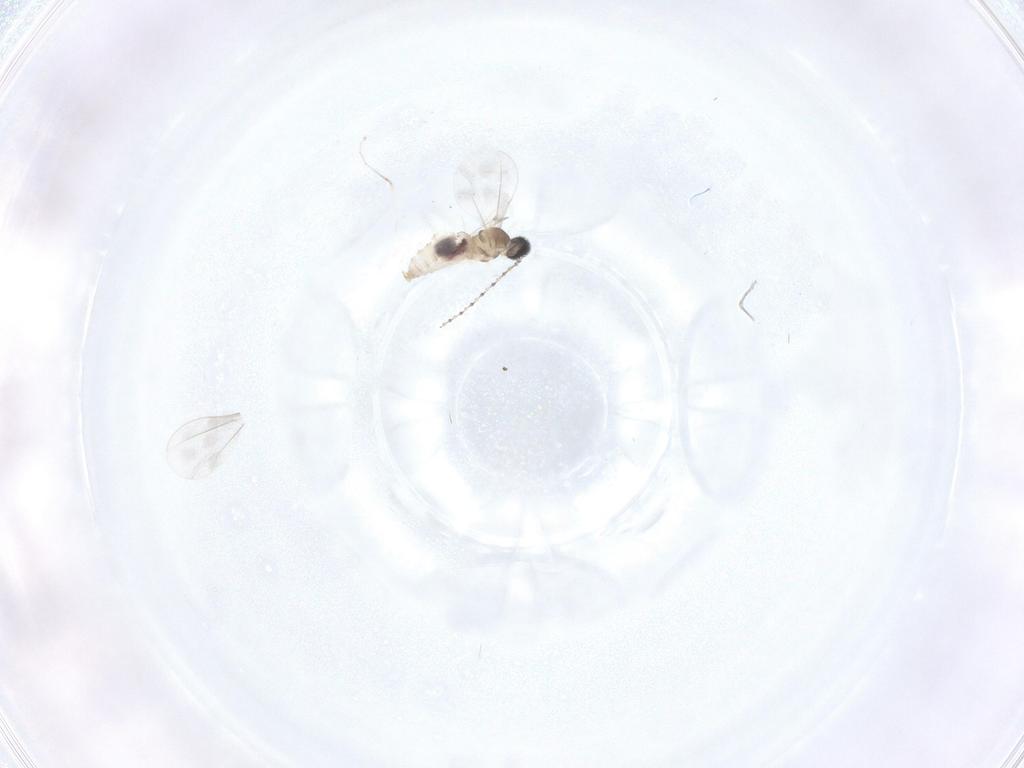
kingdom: Animalia
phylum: Arthropoda
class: Insecta
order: Diptera
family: Cecidomyiidae
